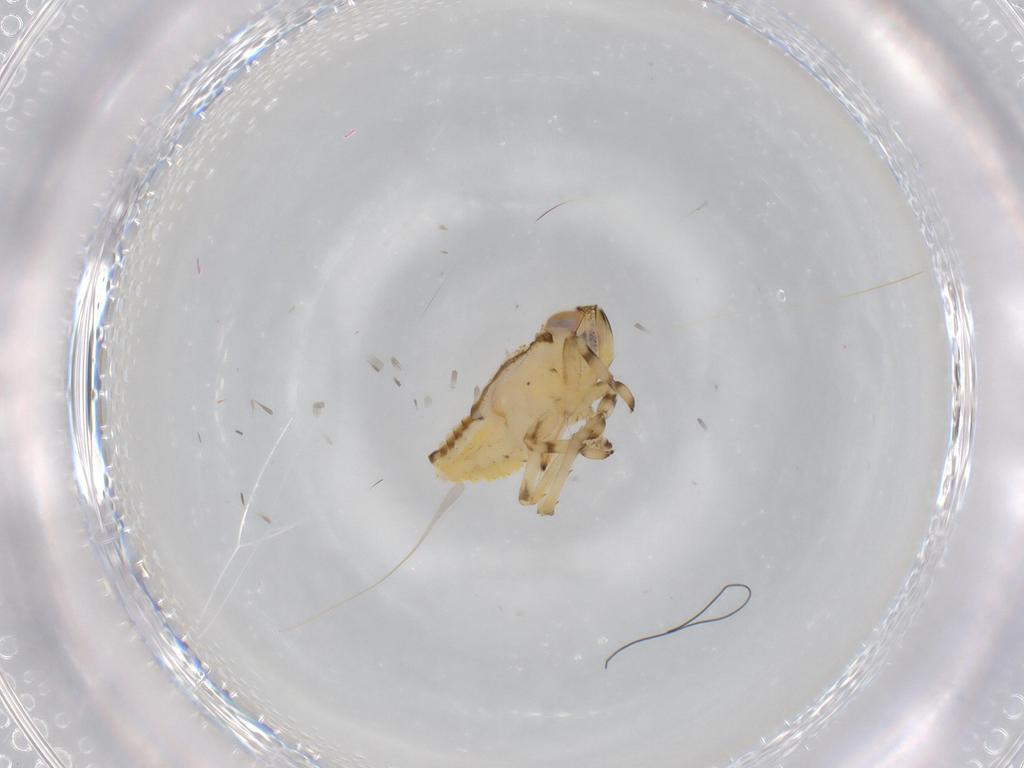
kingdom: Animalia
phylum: Arthropoda
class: Insecta
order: Hemiptera
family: Issidae
